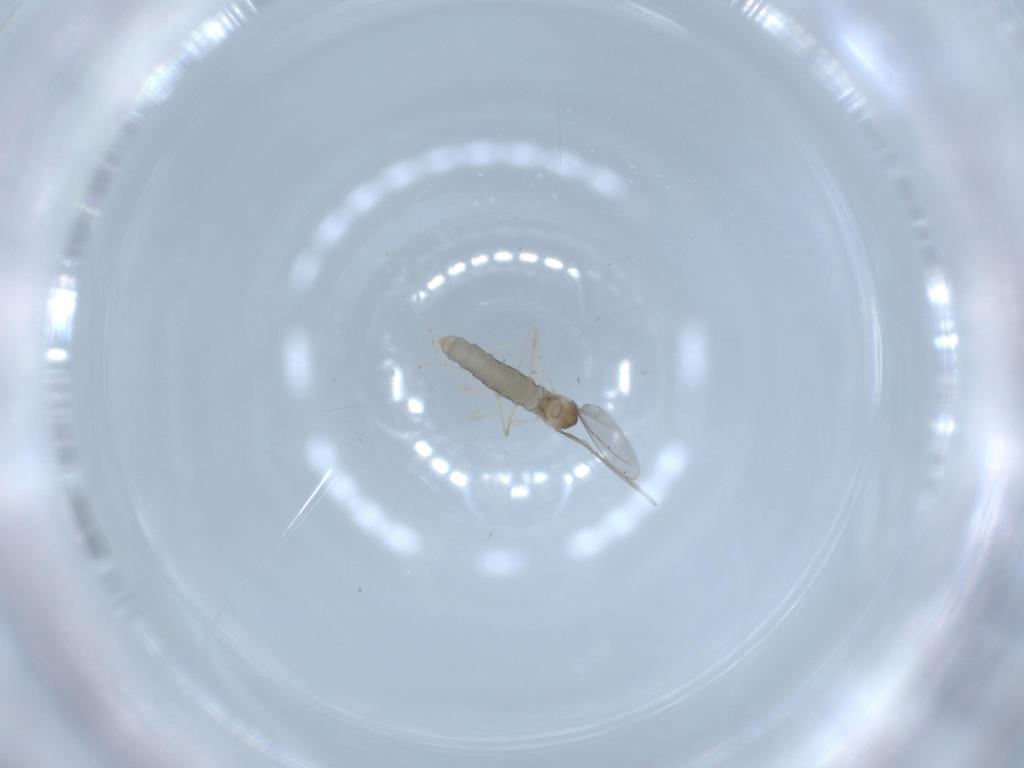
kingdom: Animalia
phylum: Arthropoda
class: Insecta
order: Diptera
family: Cecidomyiidae
